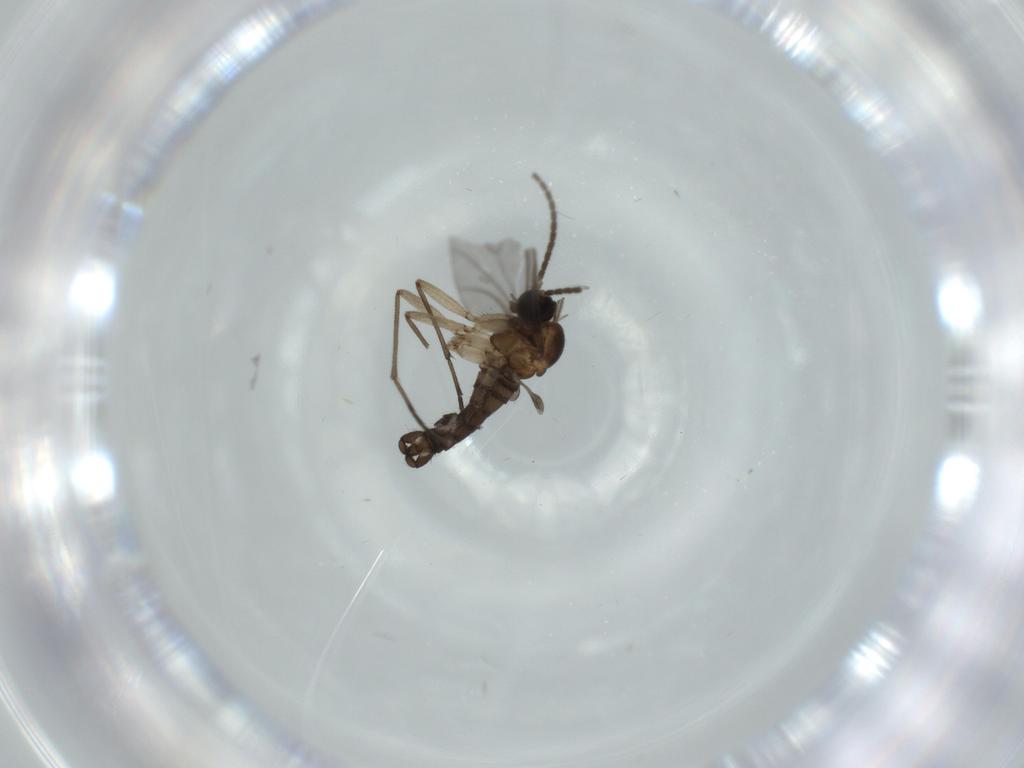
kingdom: Animalia
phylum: Arthropoda
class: Insecta
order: Diptera
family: Sciaridae
